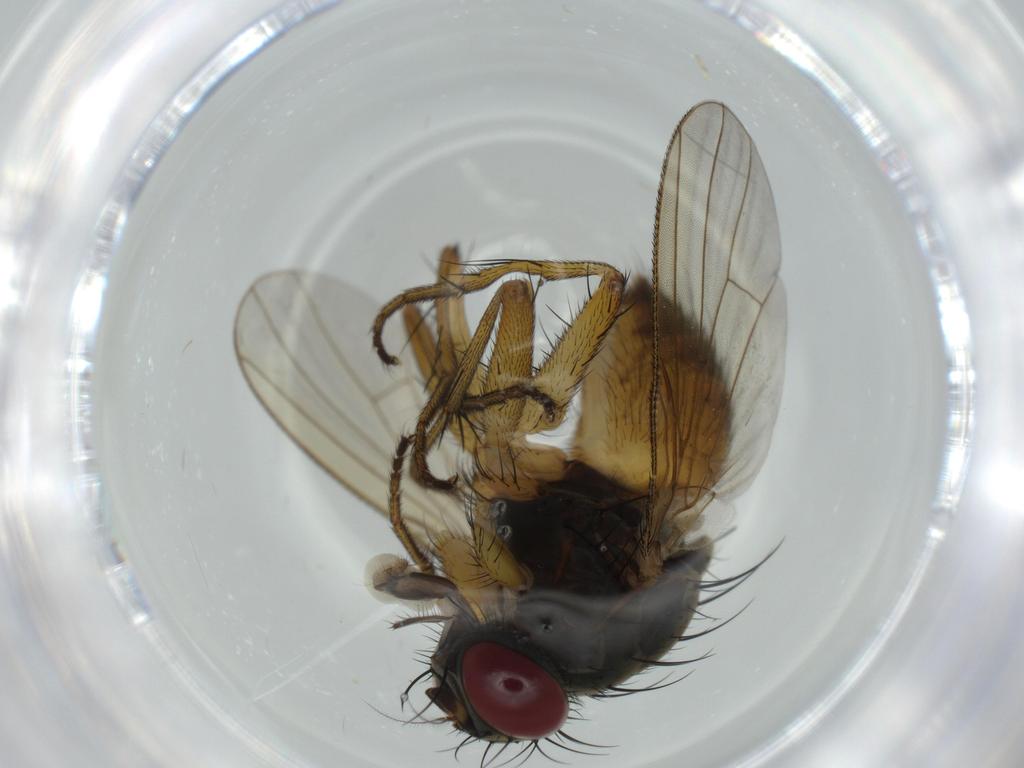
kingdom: Animalia
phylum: Arthropoda
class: Insecta
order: Diptera
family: Muscidae
